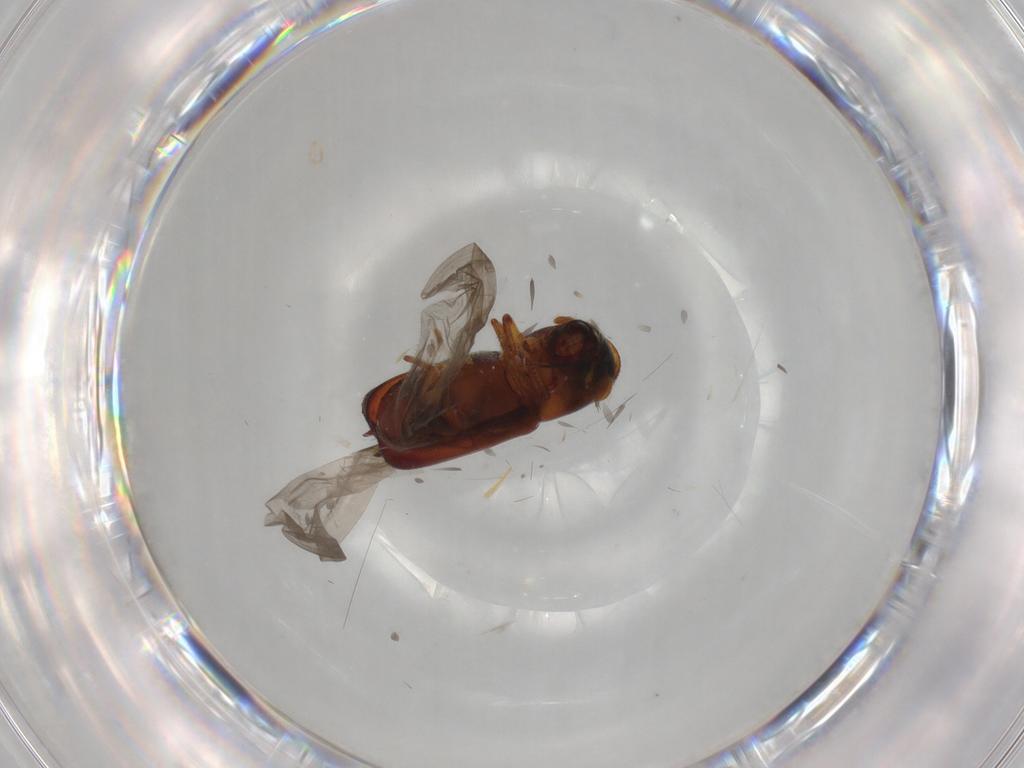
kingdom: Animalia
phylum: Arthropoda
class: Insecta
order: Coleoptera
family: Curculionidae
